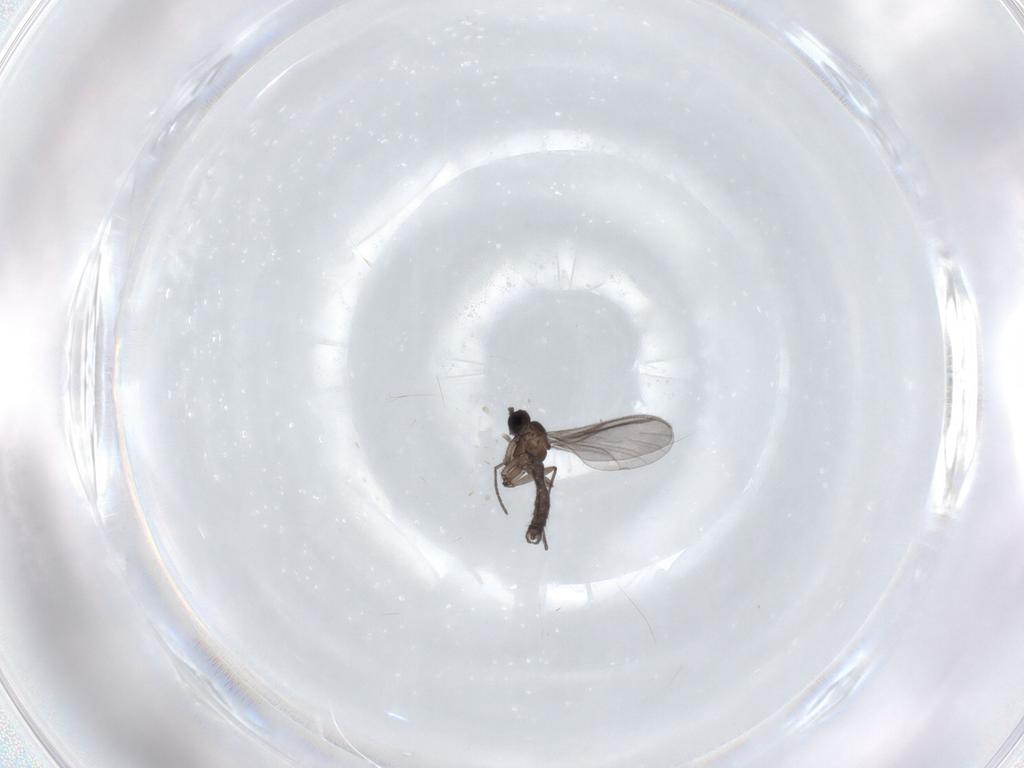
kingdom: Animalia
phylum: Arthropoda
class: Insecta
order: Diptera
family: Chironomidae
